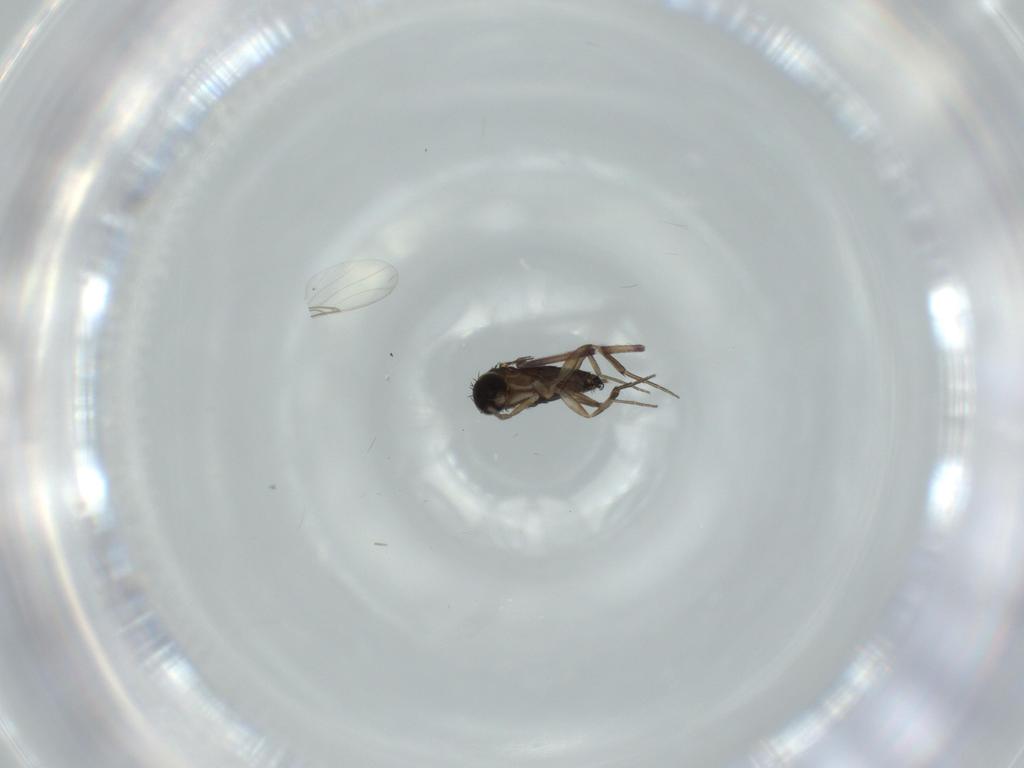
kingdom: Animalia
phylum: Arthropoda
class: Insecta
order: Diptera
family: Phoridae
